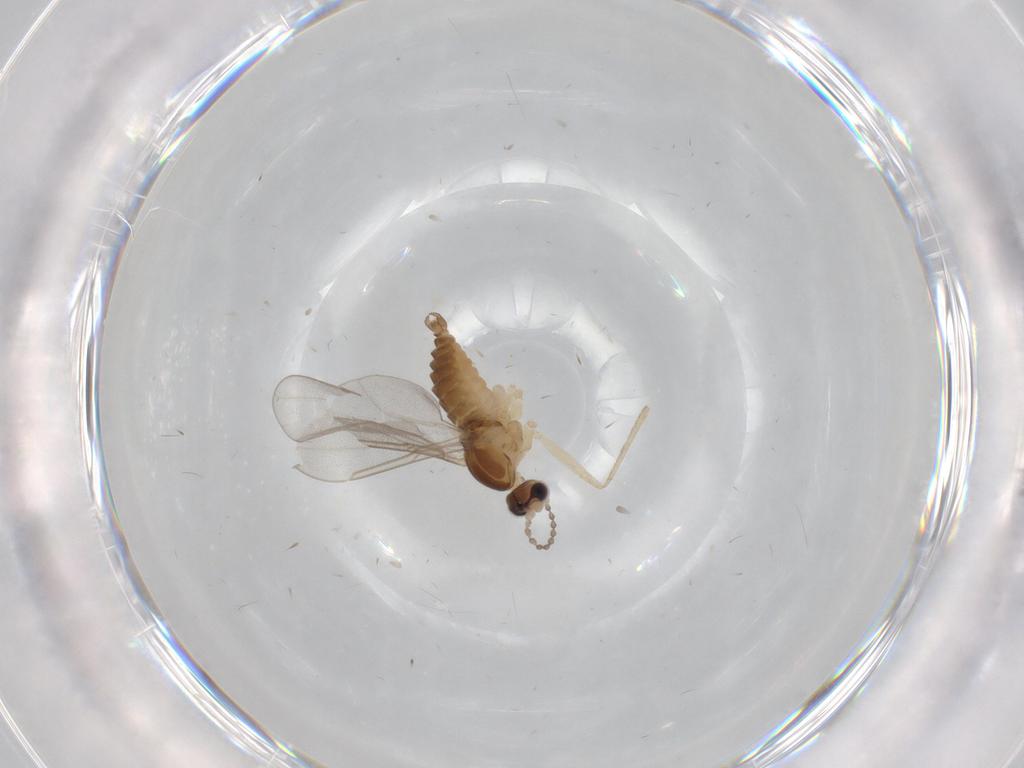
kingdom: Animalia
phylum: Arthropoda
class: Insecta
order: Diptera
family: Cecidomyiidae
